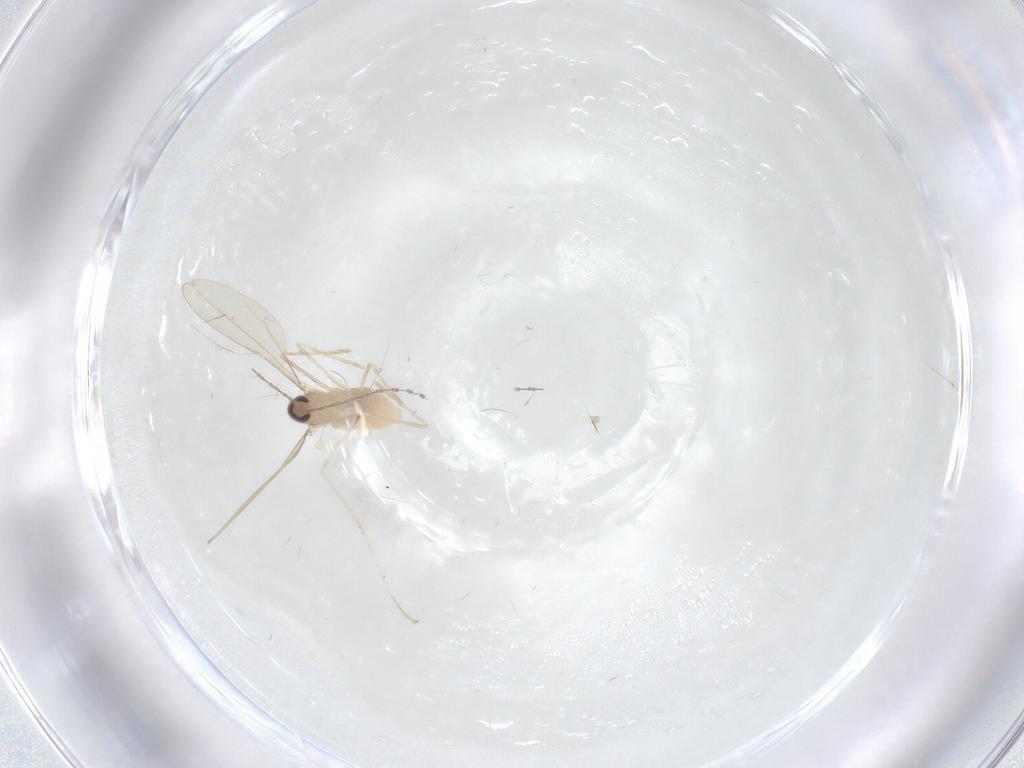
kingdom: Animalia
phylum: Arthropoda
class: Insecta
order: Diptera
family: Cecidomyiidae
